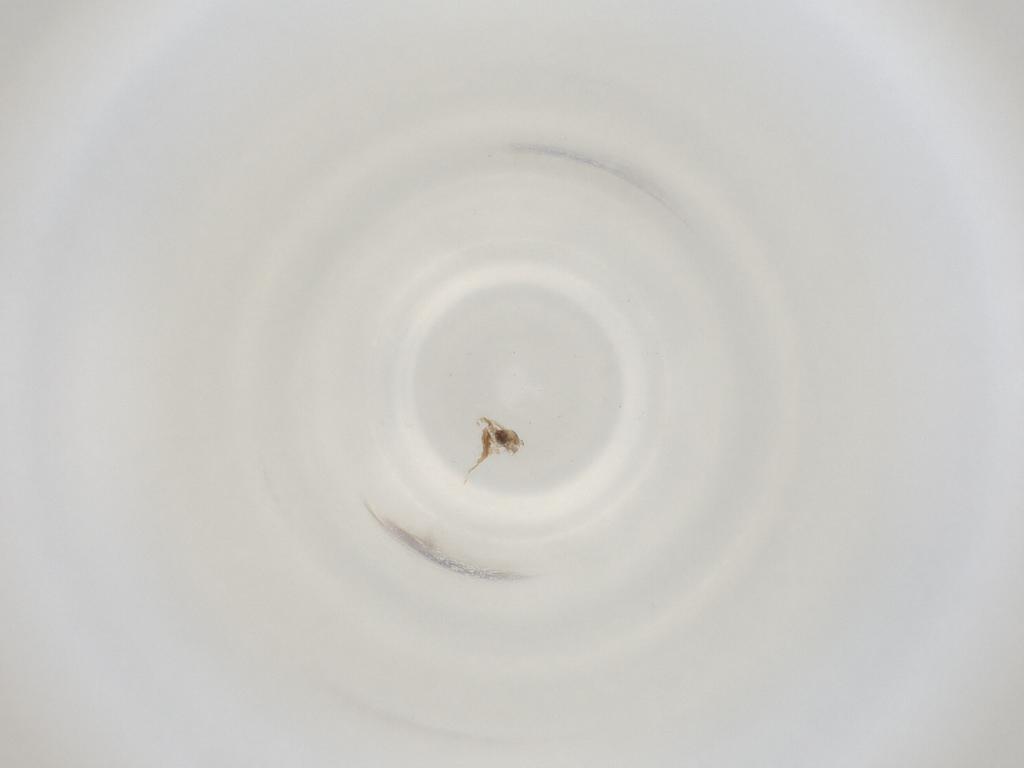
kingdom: Animalia
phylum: Arthropoda
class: Insecta
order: Diptera
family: Cecidomyiidae
